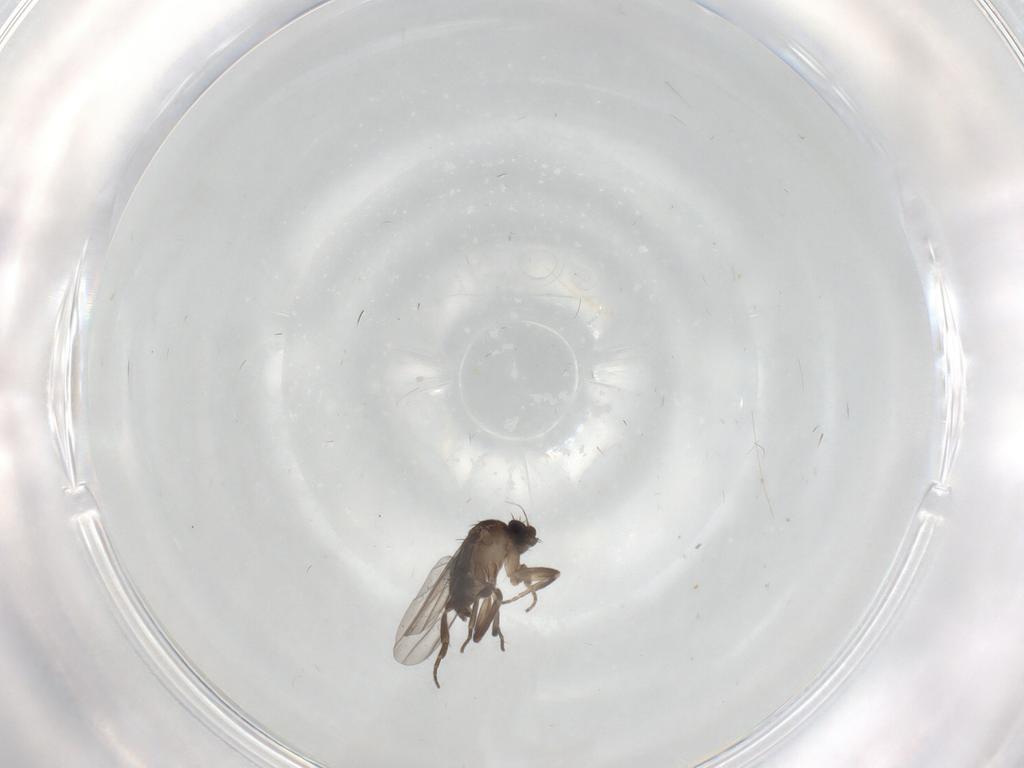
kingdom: Animalia
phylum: Arthropoda
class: Insecta
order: Diptera
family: Phoridae
